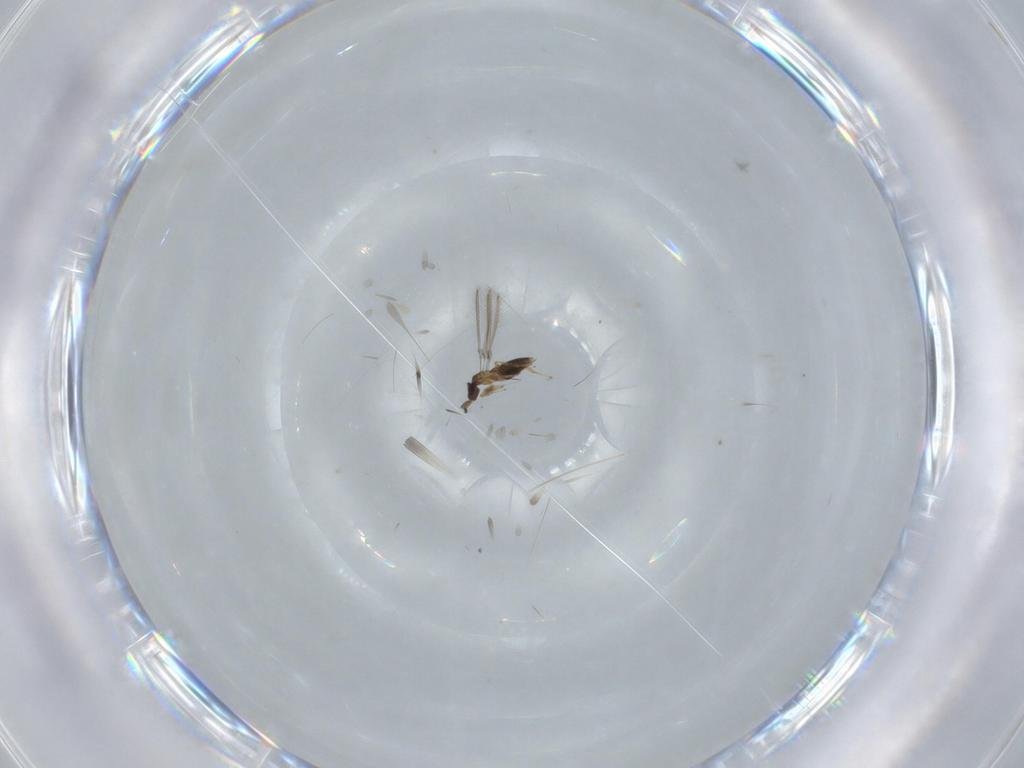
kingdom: Animalia
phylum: Arthropoda
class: Insecta
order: Hymenoptera
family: Mymaridae
